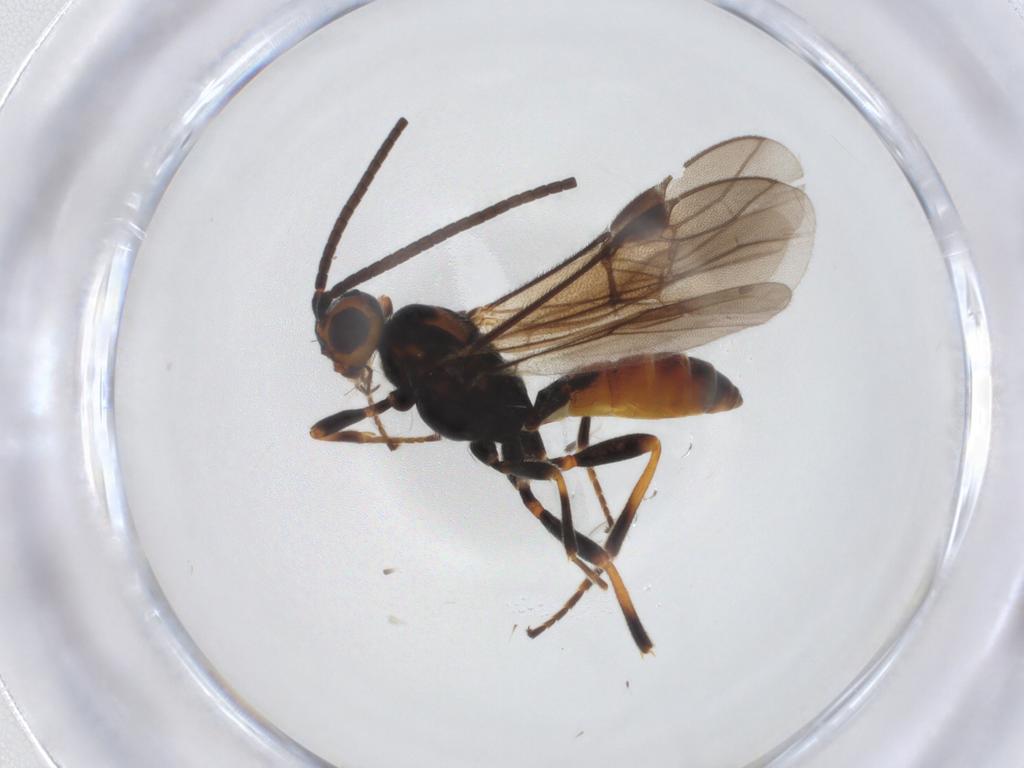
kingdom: Animalia
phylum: Arthropoda
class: Insecta
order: Hymenoptera
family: Braconidae
